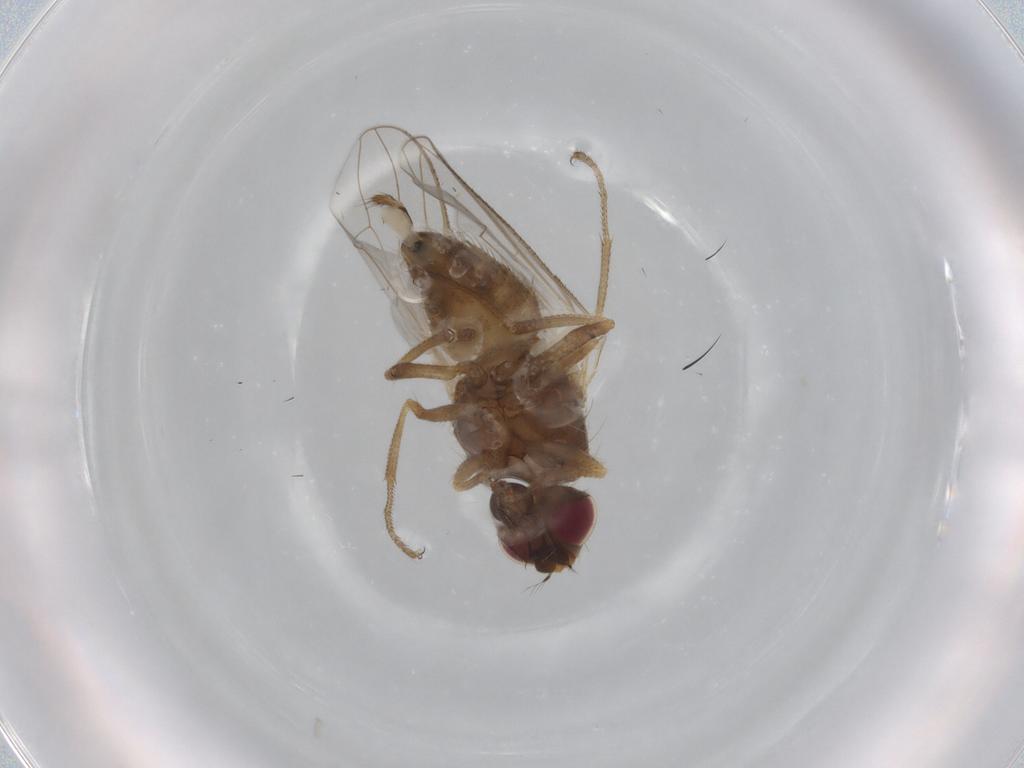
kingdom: Animalia
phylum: Arthropoda
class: Insecta
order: Diptera
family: Muscidae
